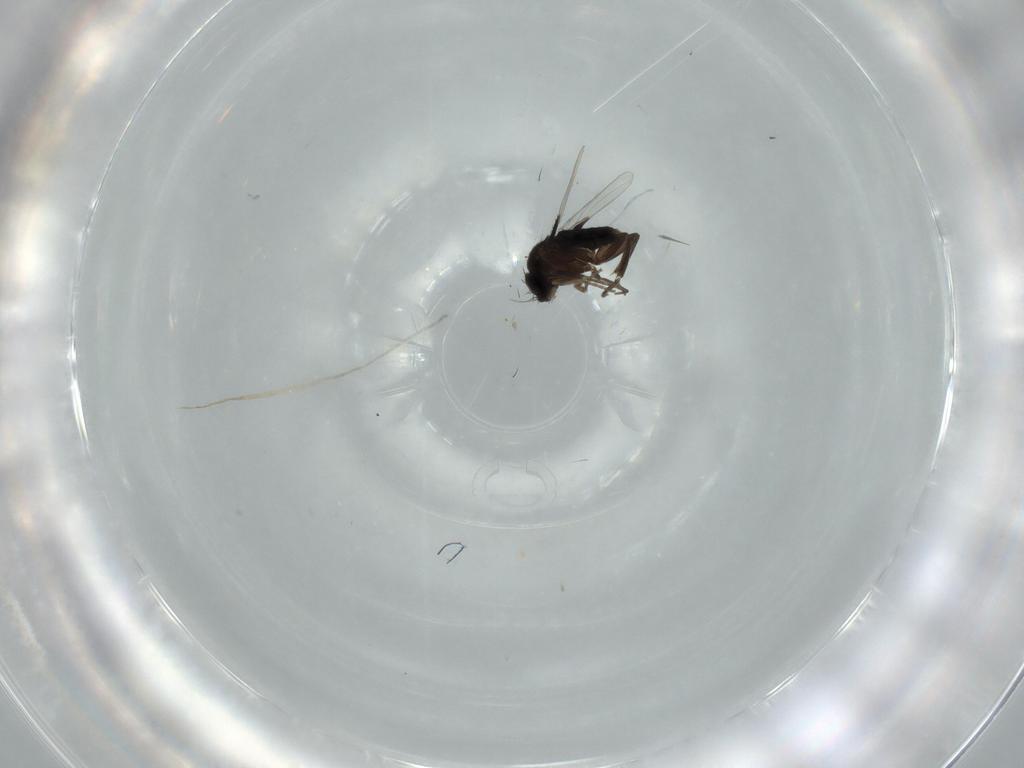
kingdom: Animalia
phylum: Arthropoda
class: Insecta
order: Diptera
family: Phoridae
